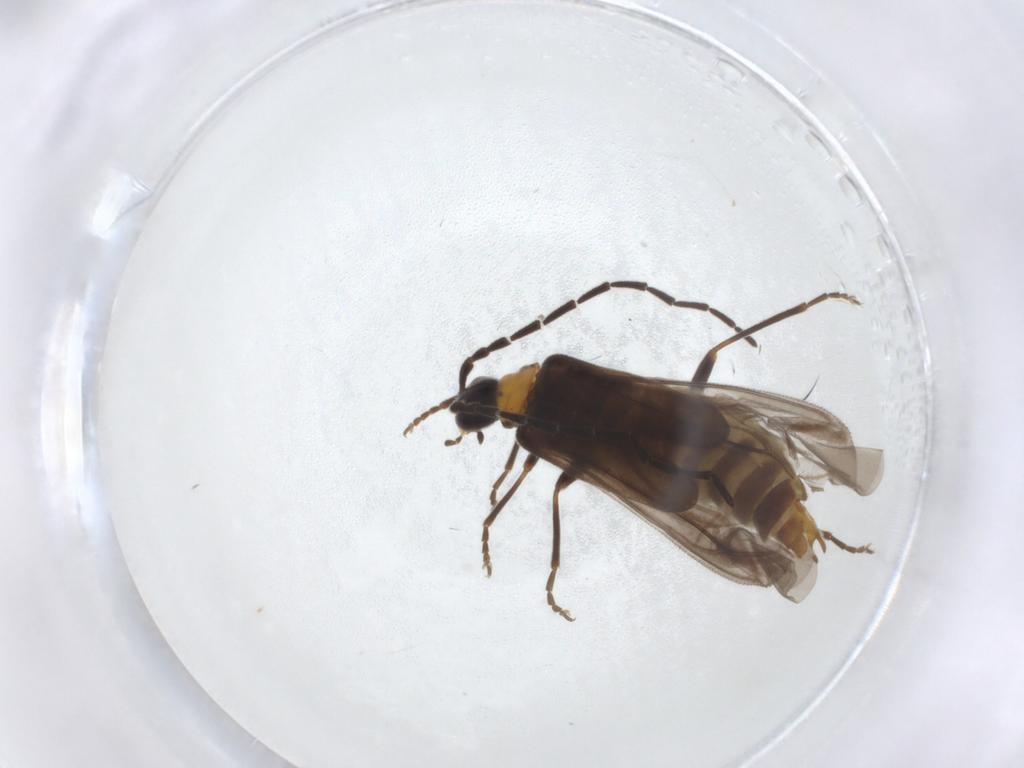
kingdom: Animalia
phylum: Arthropoda
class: Insecta
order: Coleoptera
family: Cantharidae
